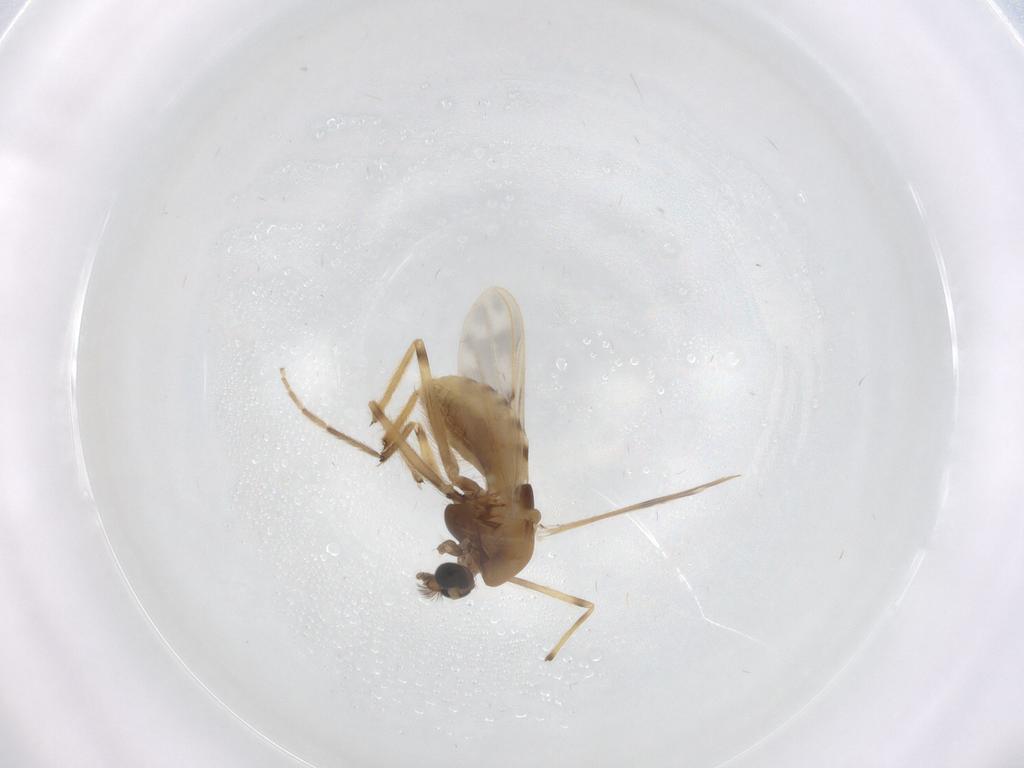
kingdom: Animalia
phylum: Arthropoda
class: Insecta
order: Diptera
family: Chironomidae
